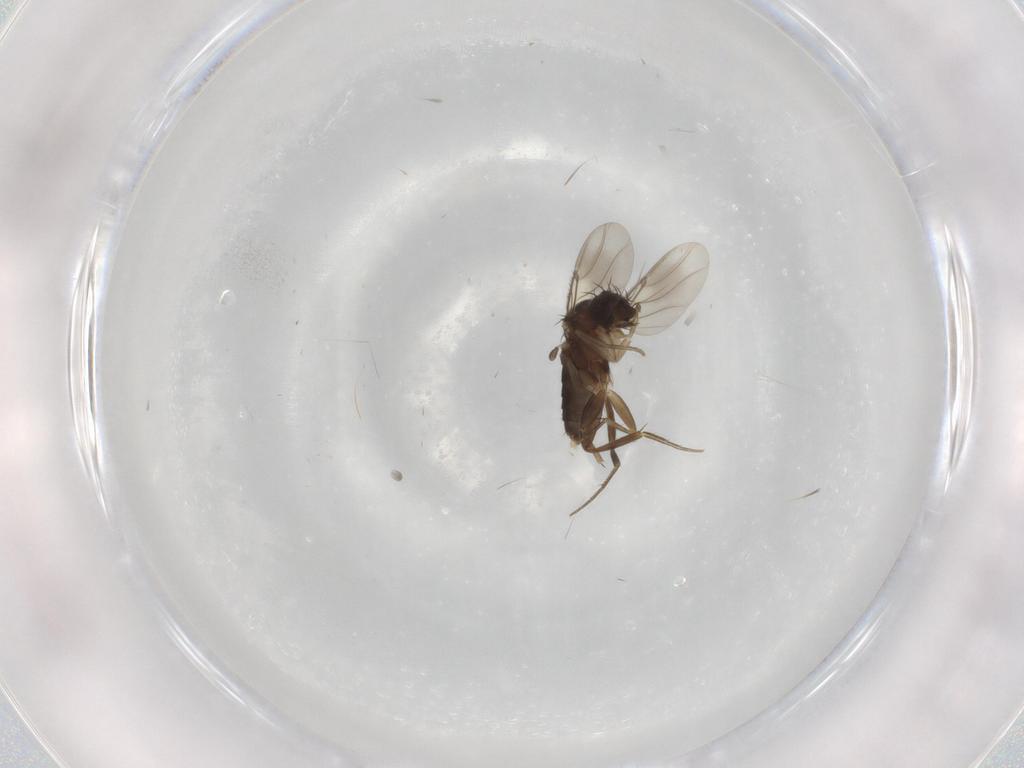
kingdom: Animalia
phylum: Arthropoda
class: Insecta
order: Diptera
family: Phoridae
